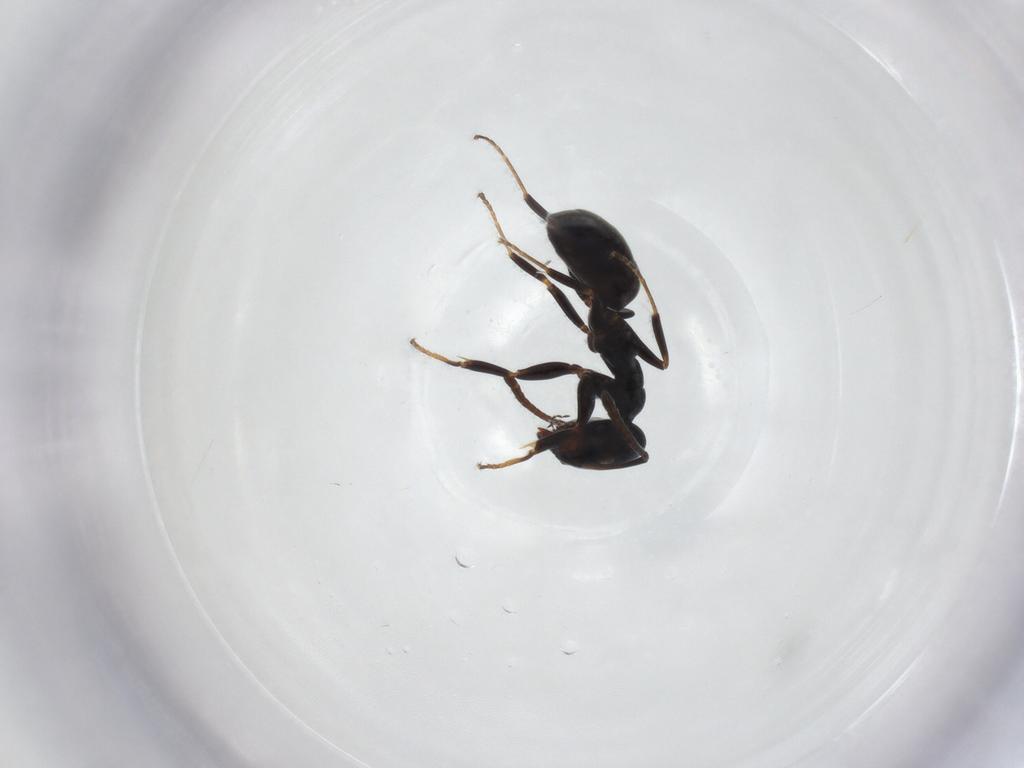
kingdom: Animalia
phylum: Arthropoda
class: Insecta
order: Hymenoptera
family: Formicidae
